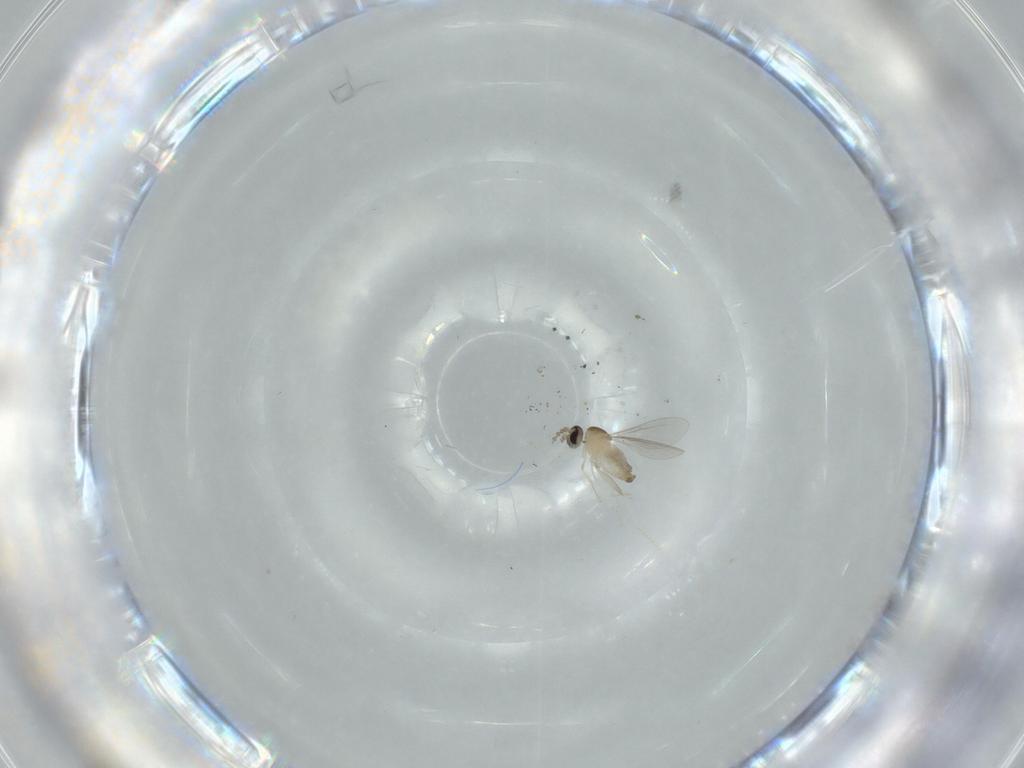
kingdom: Animalia
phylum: Arthropoda
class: Insecta
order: Diptera
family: Cecidomyiidae
